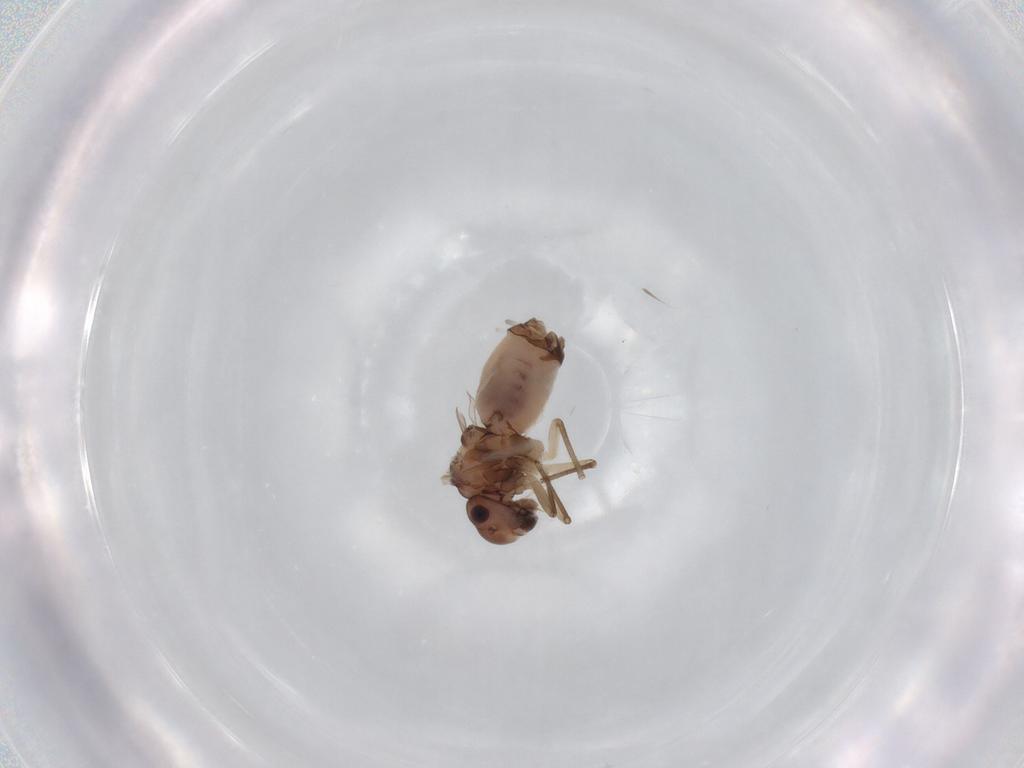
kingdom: Animalia
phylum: Arthropoda
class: Insecta
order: Psocodea
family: Peripsocidae
